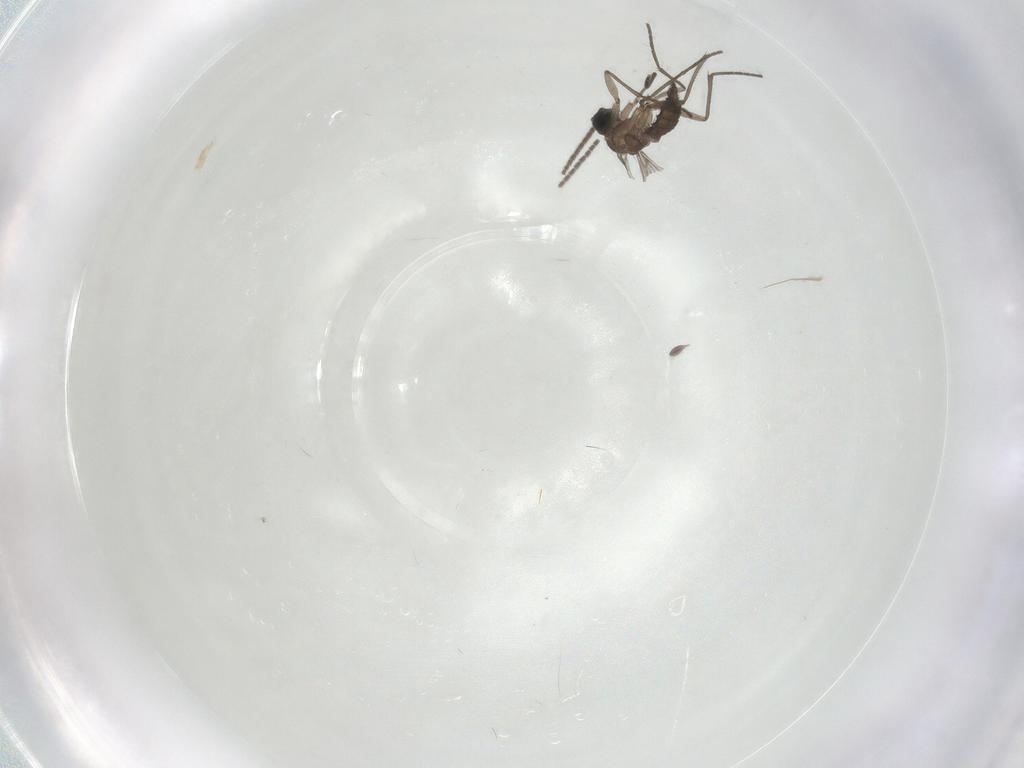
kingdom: Animalia
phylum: Arthropoda
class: Insecta
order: Diptera
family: Sciaridae
